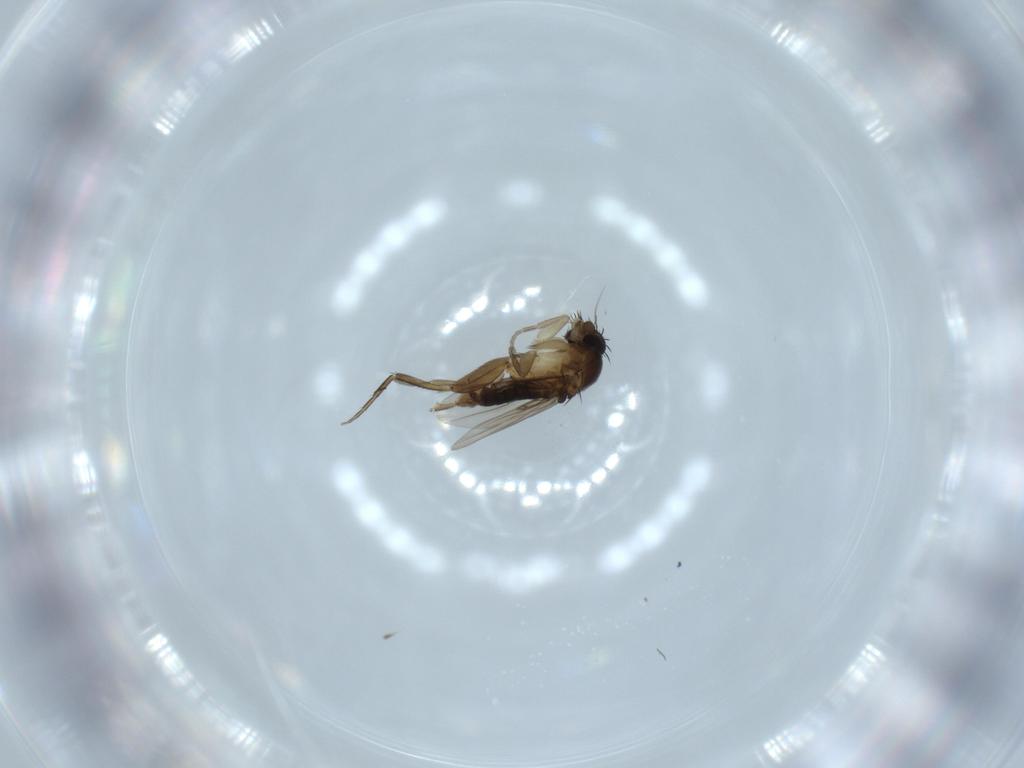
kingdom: Animalia
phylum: Arthropoda
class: Insecta
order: Diptera
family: Phoridae
